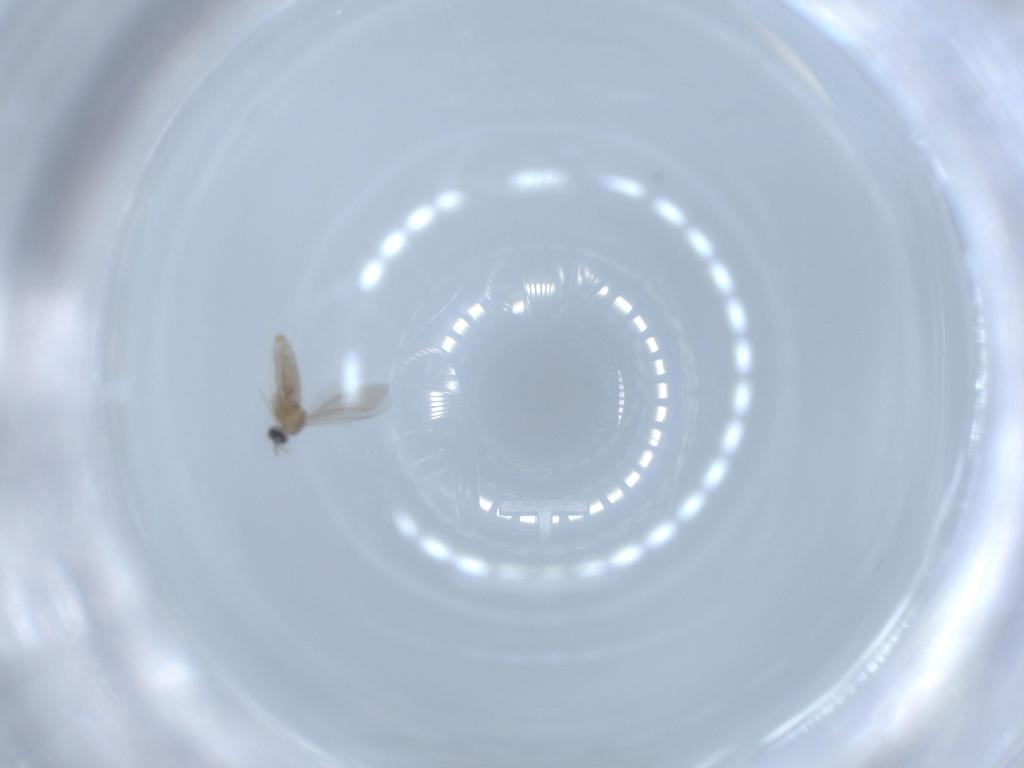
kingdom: Animalia
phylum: Arthropoda
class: Insecta
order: Diptera
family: Cecidomyiidae
